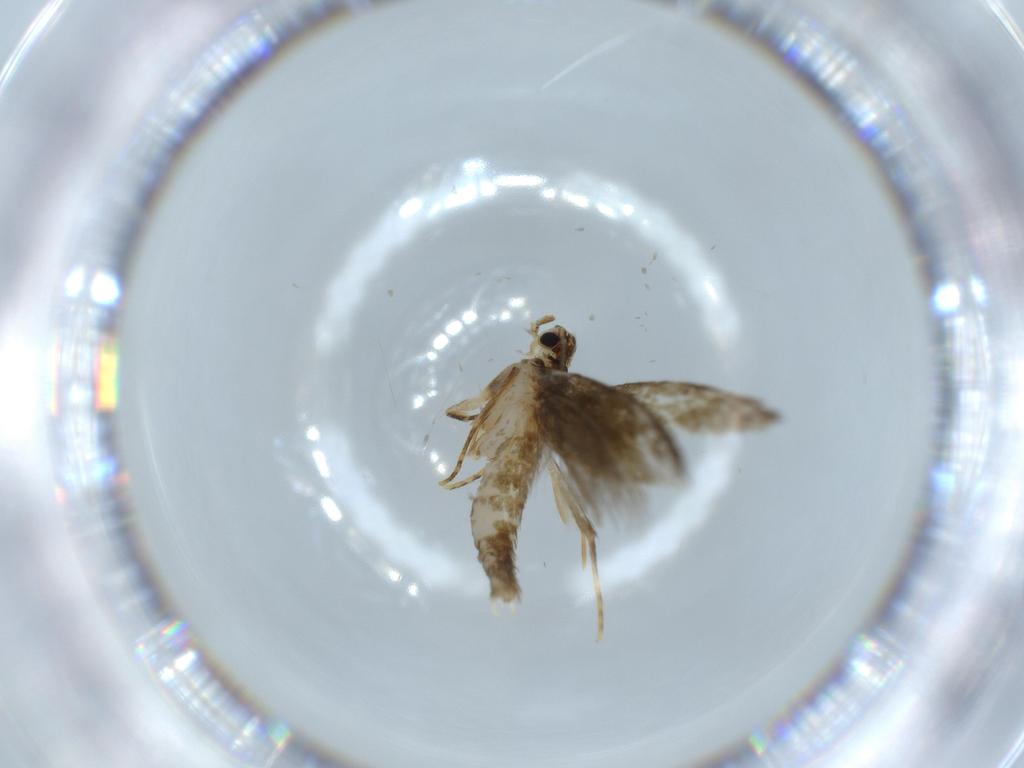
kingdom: Animalia
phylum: Arthropoda
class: Insecta
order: Lepidoptera
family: Tineidae
